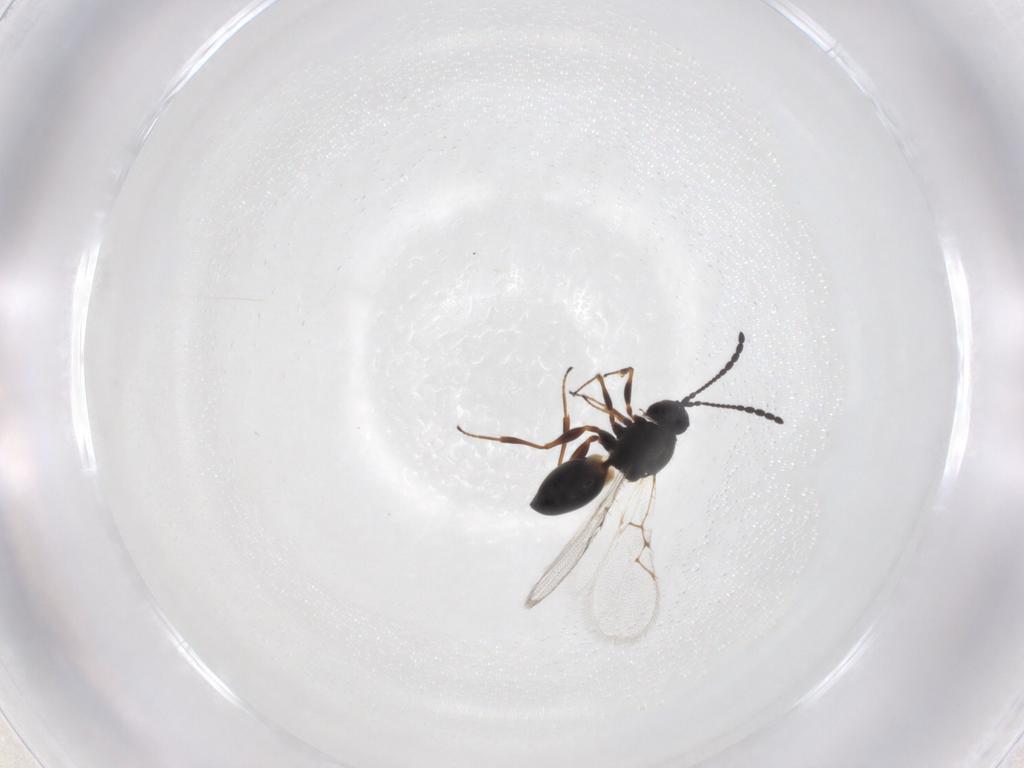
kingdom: Animalia
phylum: Arthropoda
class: Insecta
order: Hymenoptera
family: Figitidae
